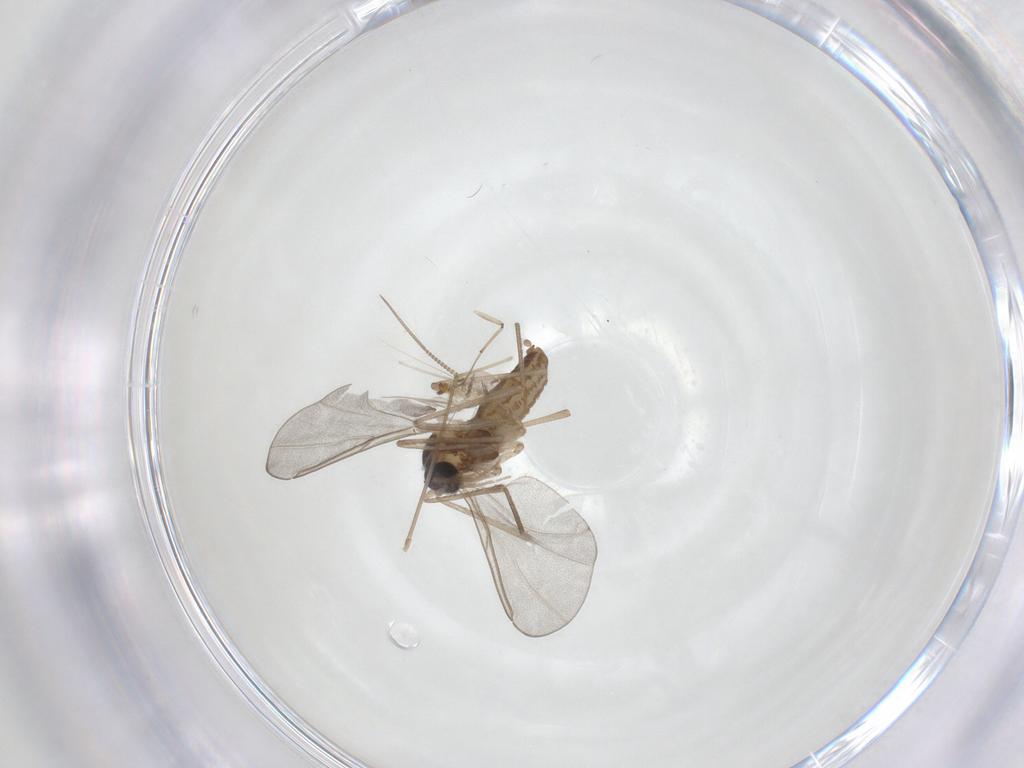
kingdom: Animalia
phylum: Arthropoda
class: Insecta
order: Diptera
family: Cecidomyiidae
